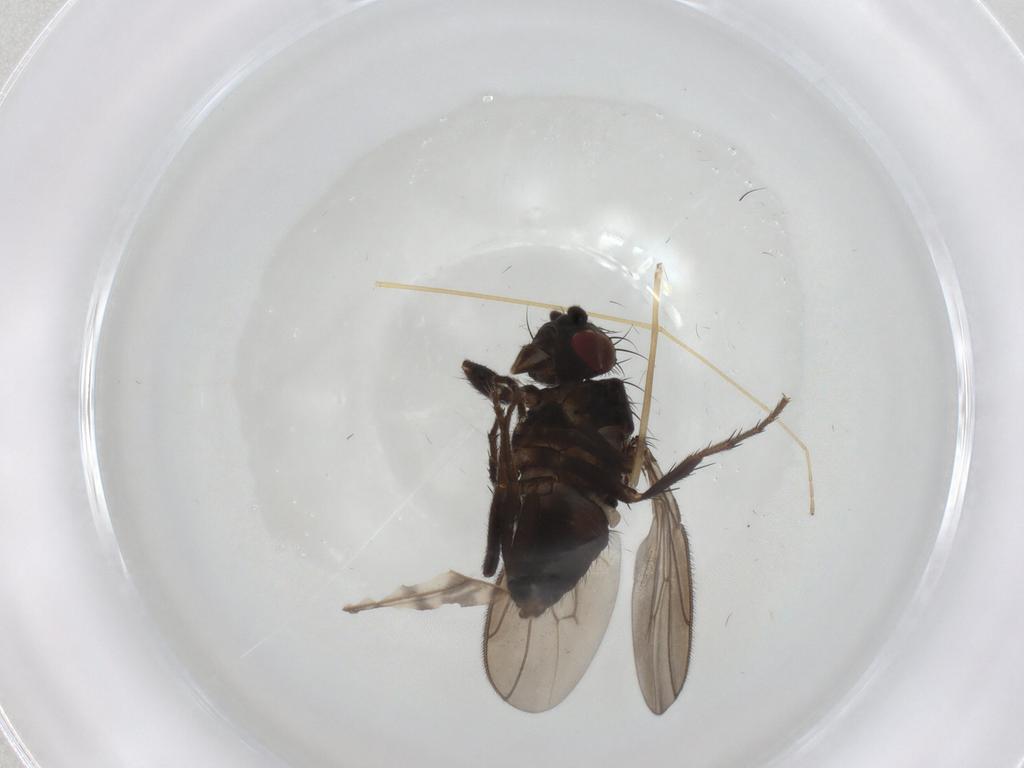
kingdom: Animalia
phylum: Arthropoda
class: Insecta
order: Diptera
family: Sphaeroceridae
